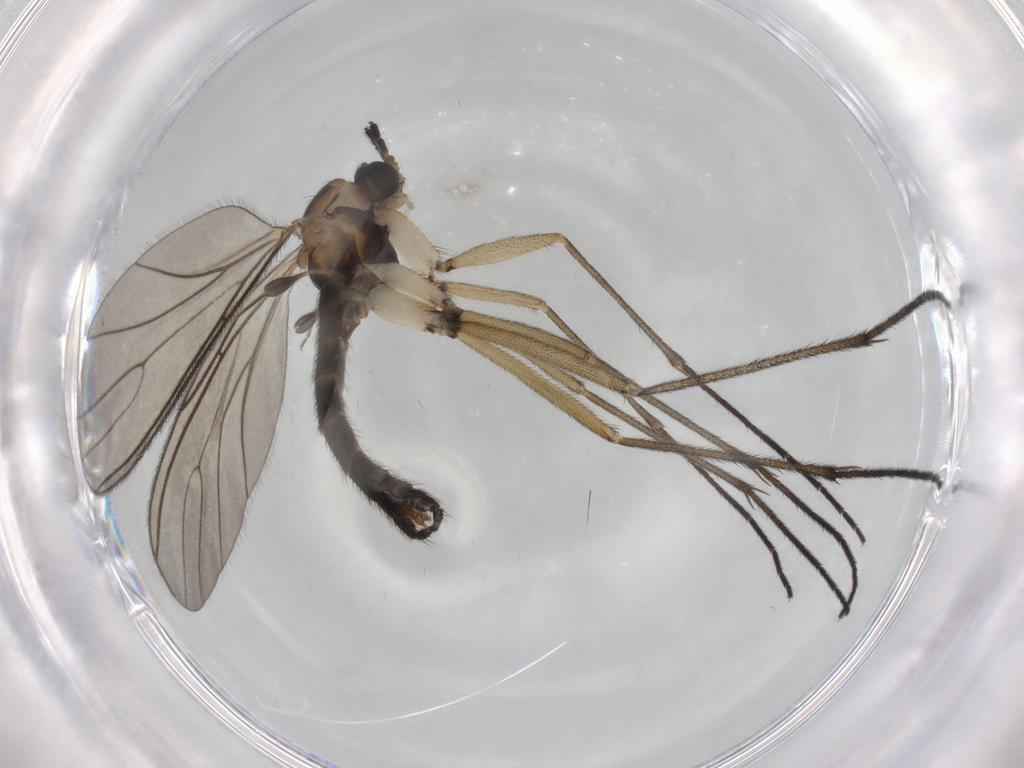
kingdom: Animalia
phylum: Arthropoda
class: Insecta
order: Diptera
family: Sciaridae
